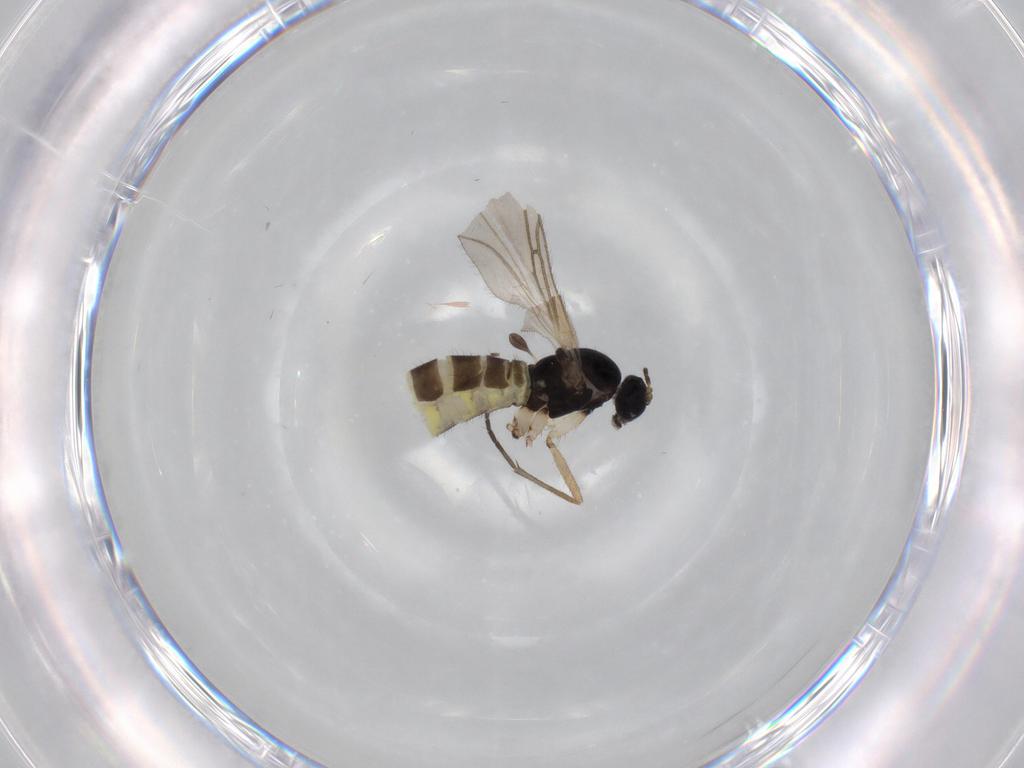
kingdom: Animalia
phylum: Arthropoda
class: Insecta
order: Diptera
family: Sciaridae
